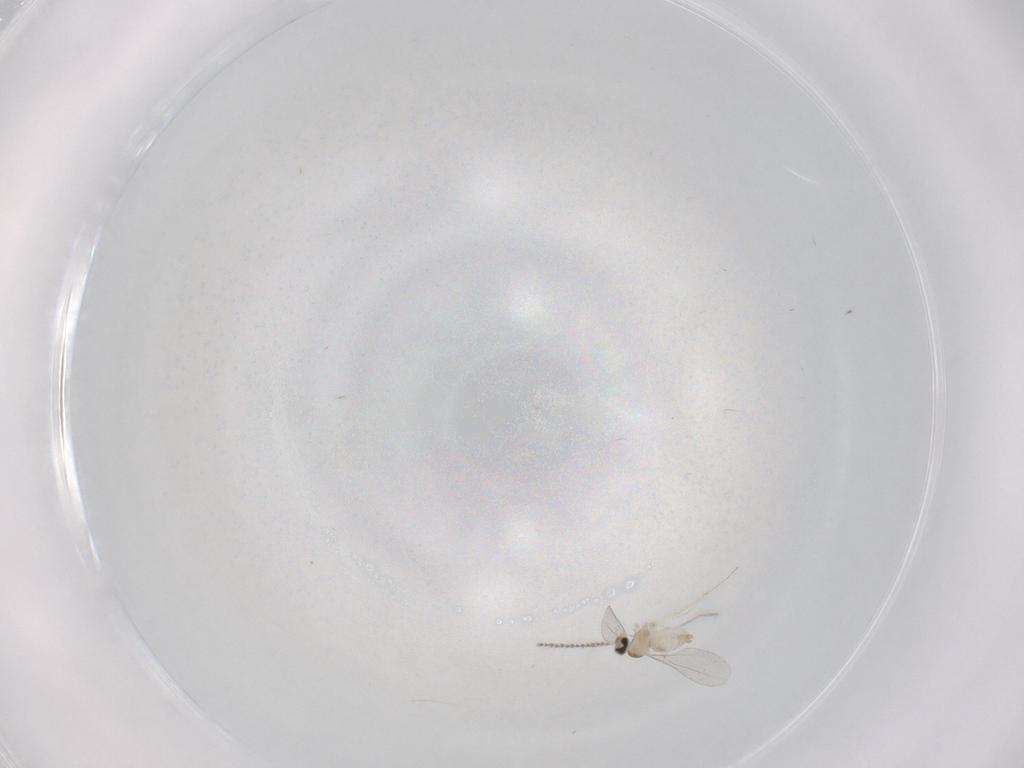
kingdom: Animalia
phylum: Arthropoda
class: Insecta
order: Diptera
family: Cecidomyiidae
